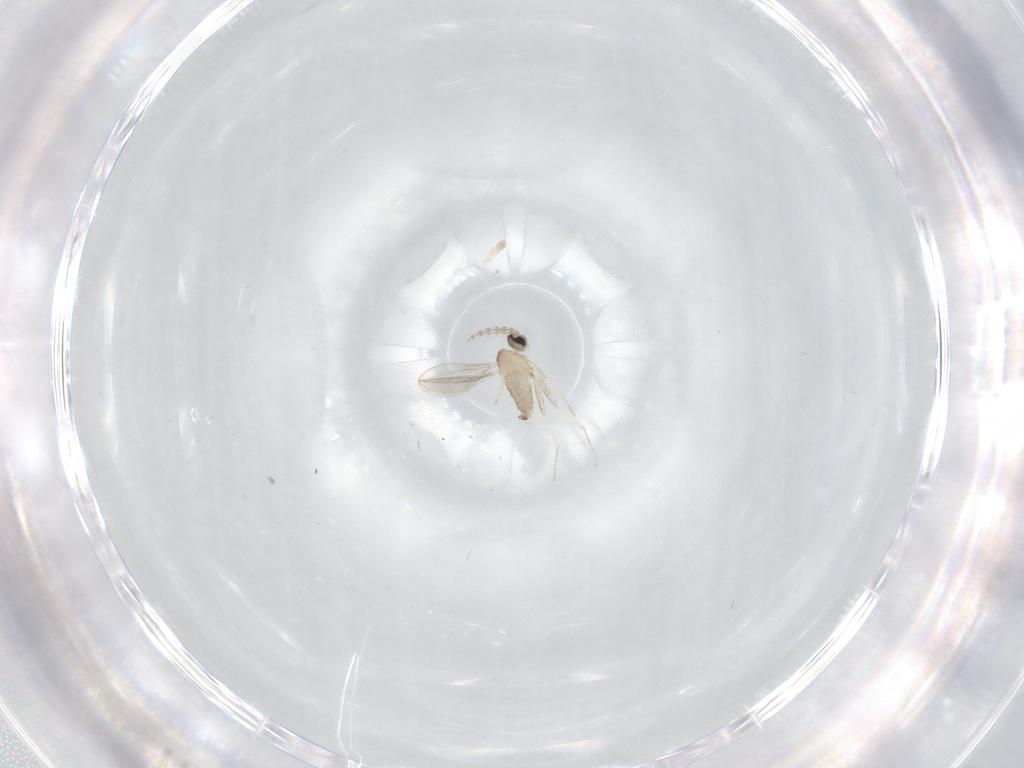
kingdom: Animalia
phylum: Arthropoda
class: Insecta
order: Diptera
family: Cecidomyiidae
